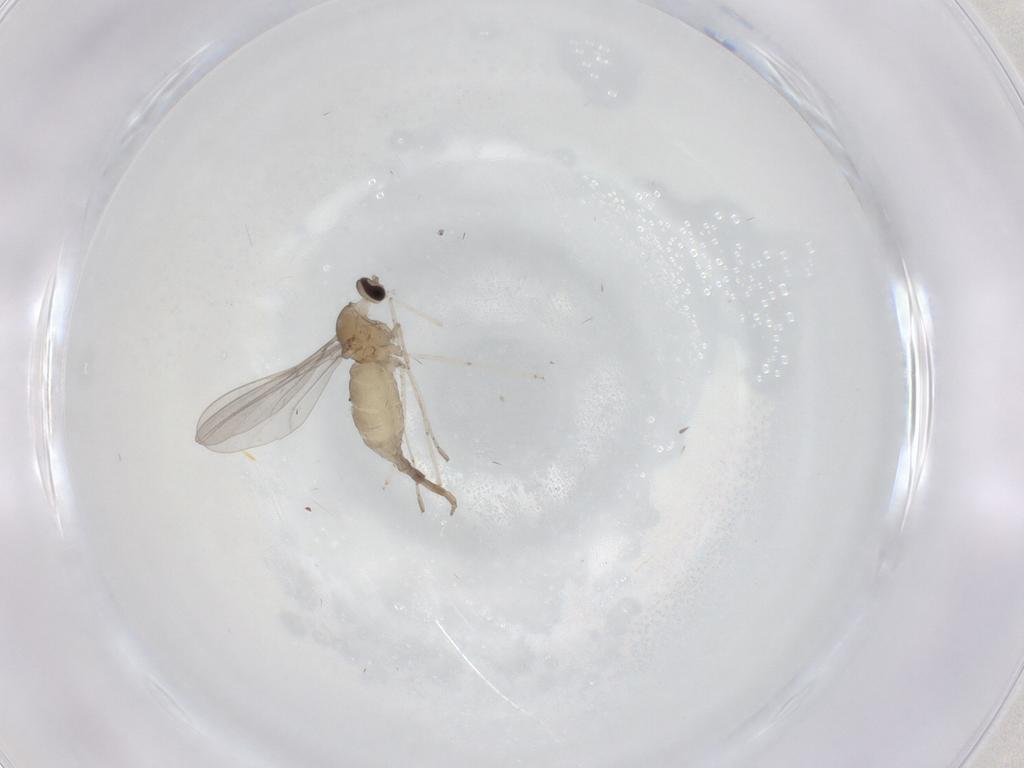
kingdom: Animalia
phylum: Arthropoda
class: Insecta
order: Diptera
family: Cecidomyiidae
